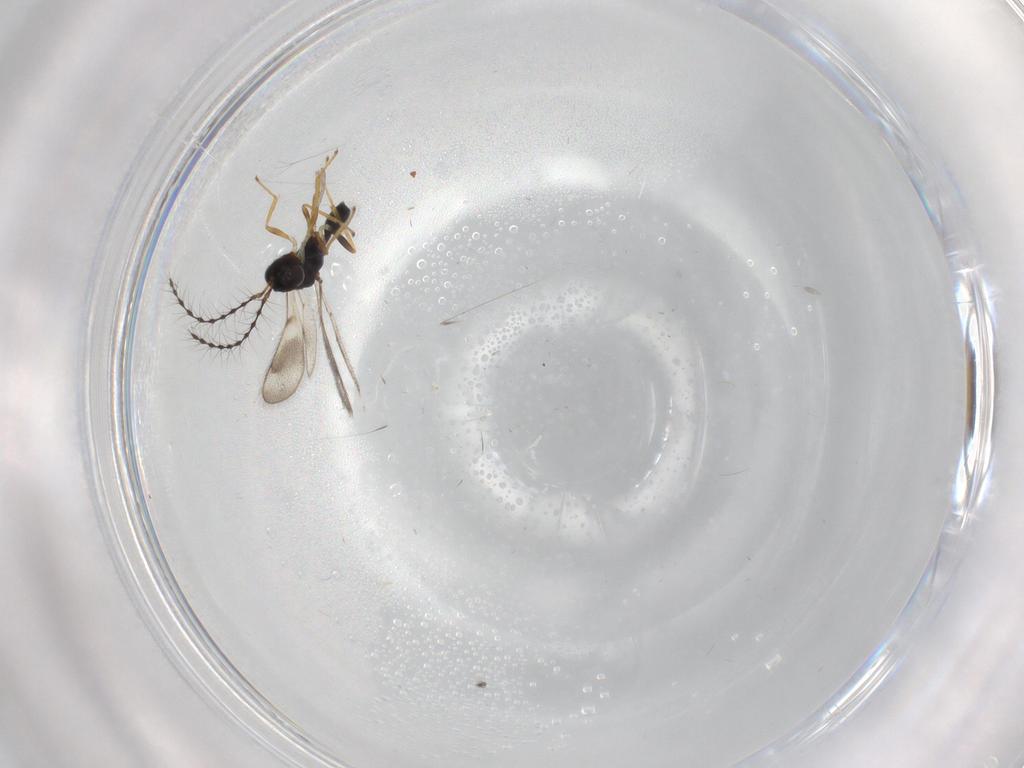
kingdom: Animalia
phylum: Arthropoda
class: Insecta
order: Hymenoptera
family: Diparidae
